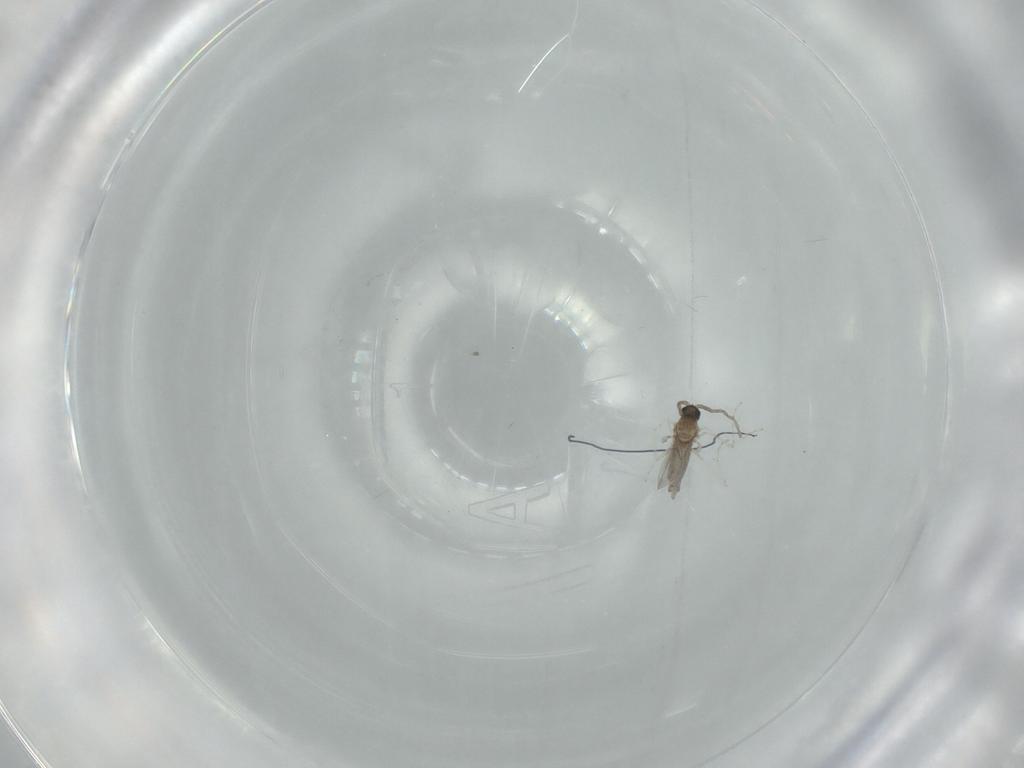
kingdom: Animalia
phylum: Arthropoda
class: Insecta
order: Diptera
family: Cecidomyiidae
